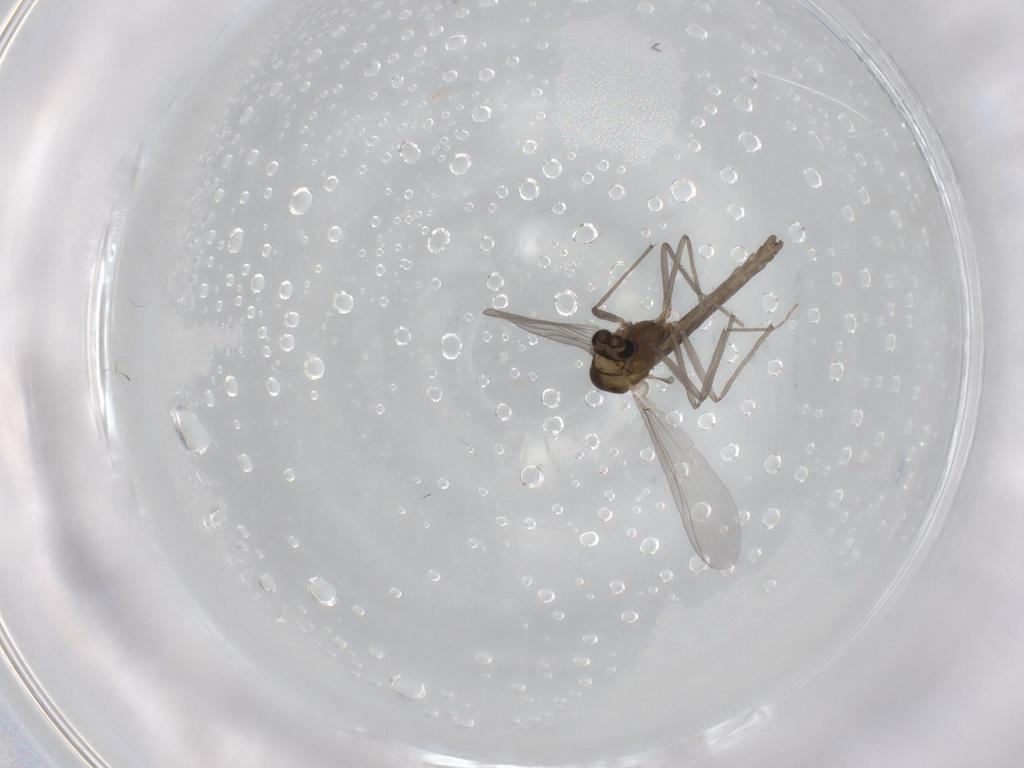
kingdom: Animalia
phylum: Arthropoda
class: Insecta
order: Diptera
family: Chironomidae
